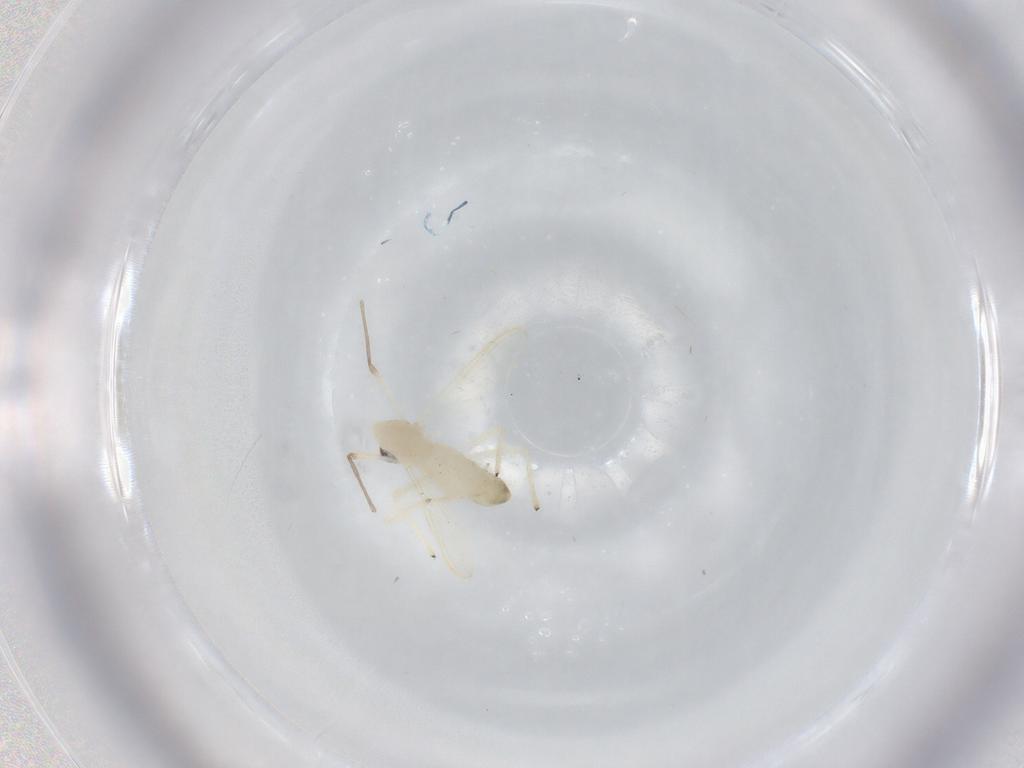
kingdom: Animalia
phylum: Arthropoda
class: Insecta
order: Diptera
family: Chironomidae
